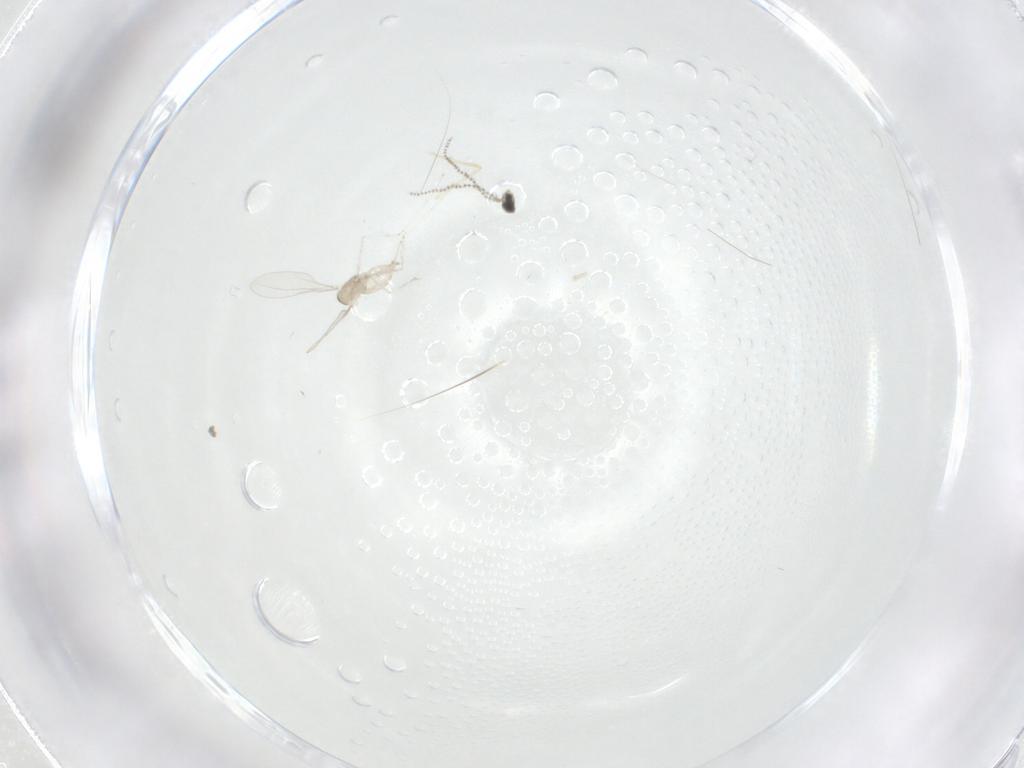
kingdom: Animalia
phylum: Arthropoda
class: Insecta
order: Diptera
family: Cecidomyiidae
